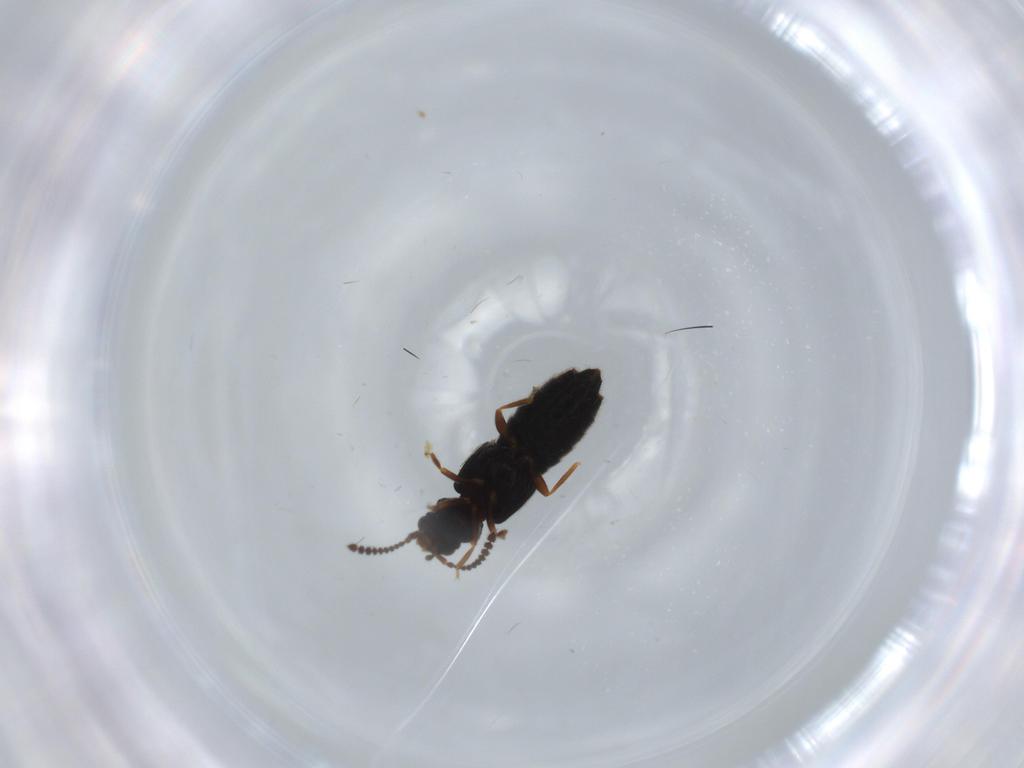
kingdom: Animalia
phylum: Arthropoda
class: Insecta
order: Coleoptera
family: Staphylinidae
